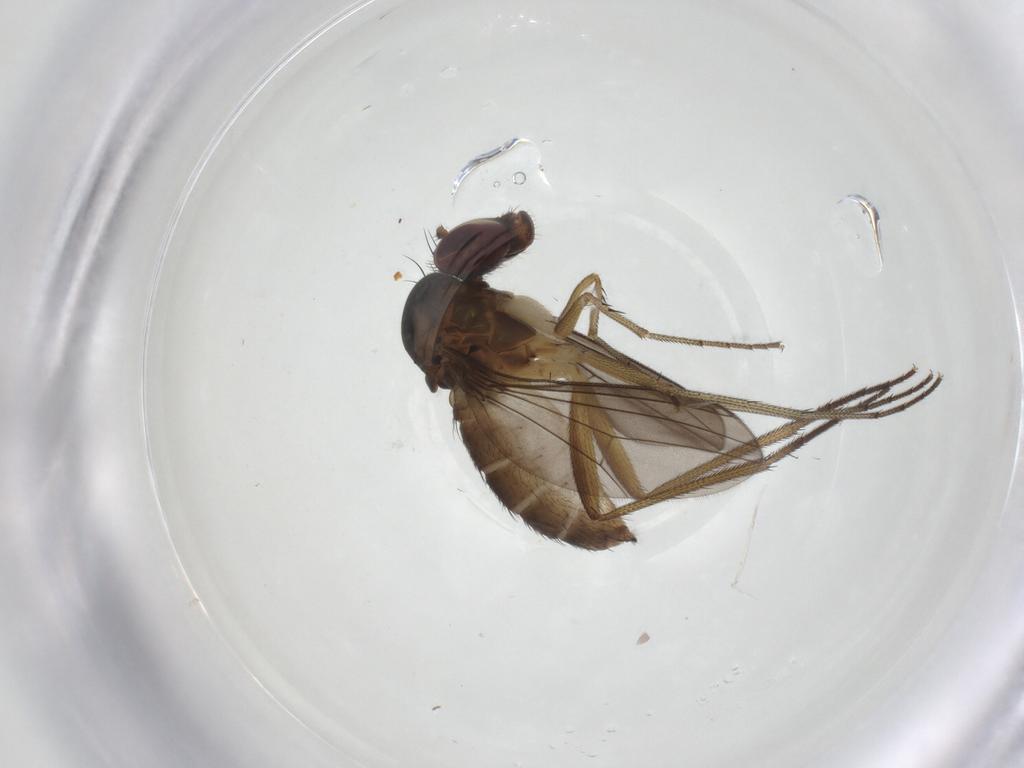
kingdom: Animalia
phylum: Arthropoda
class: Insecta
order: Diptera
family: Dolichopodidae
